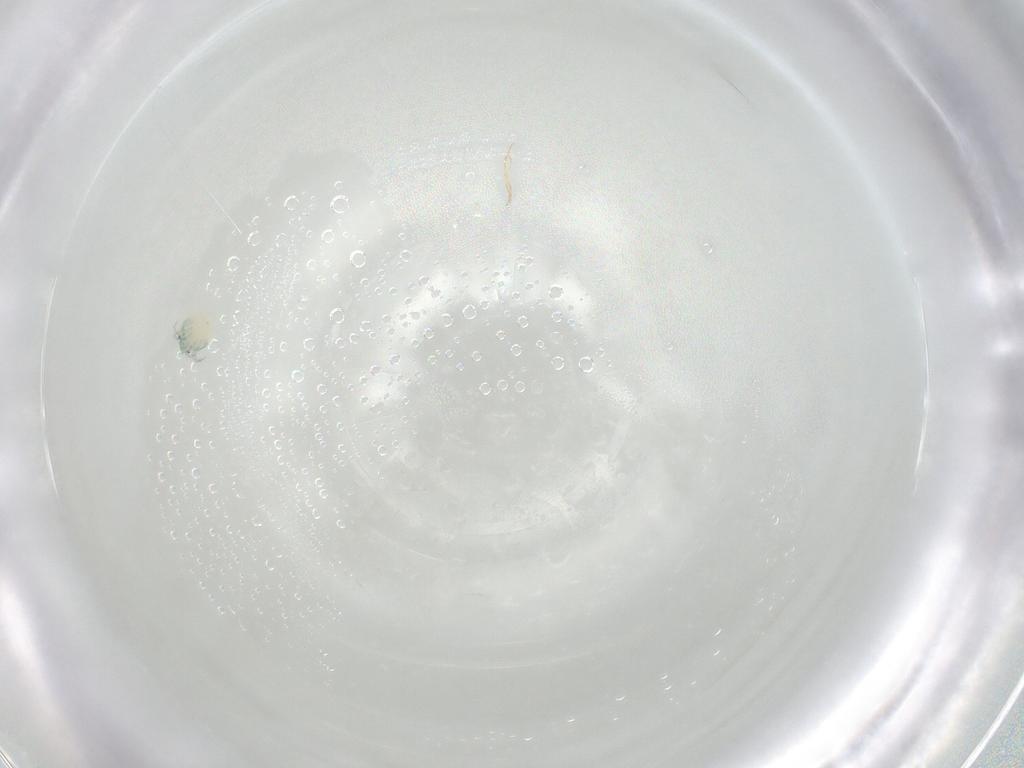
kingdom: Animalia
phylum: Arthropoda
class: Arachnida
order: Trombidiformes
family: Arrenuridae
